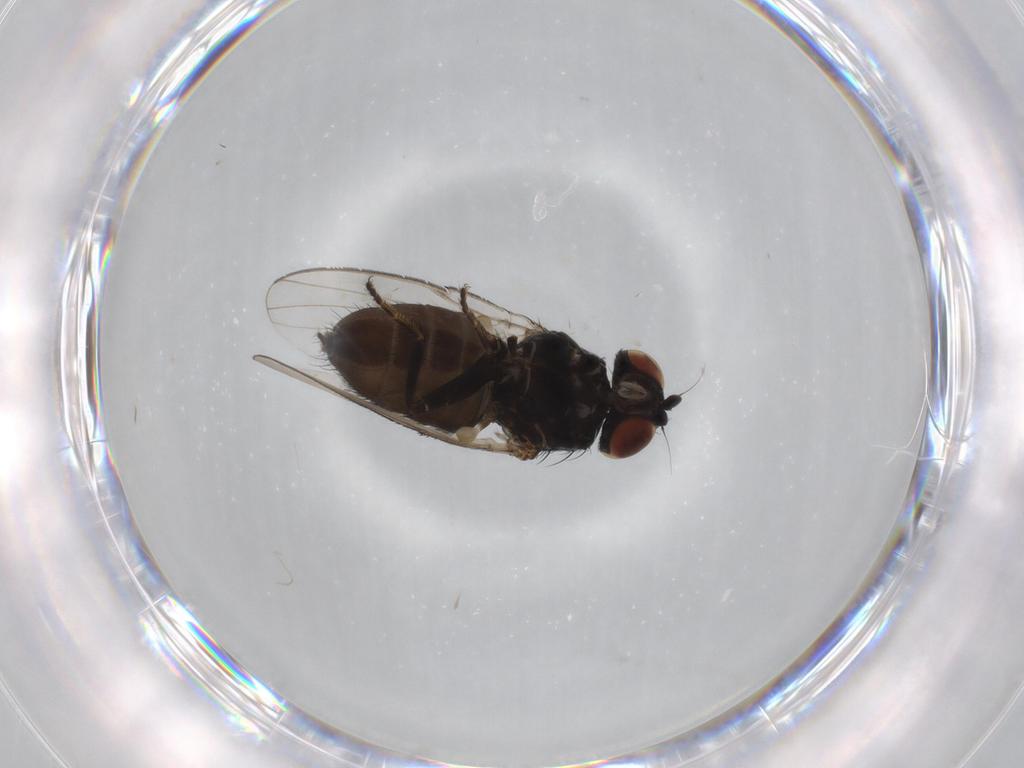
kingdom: Animalia
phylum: Arthropoda
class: Insecta
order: Diptera
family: Milichiidae
